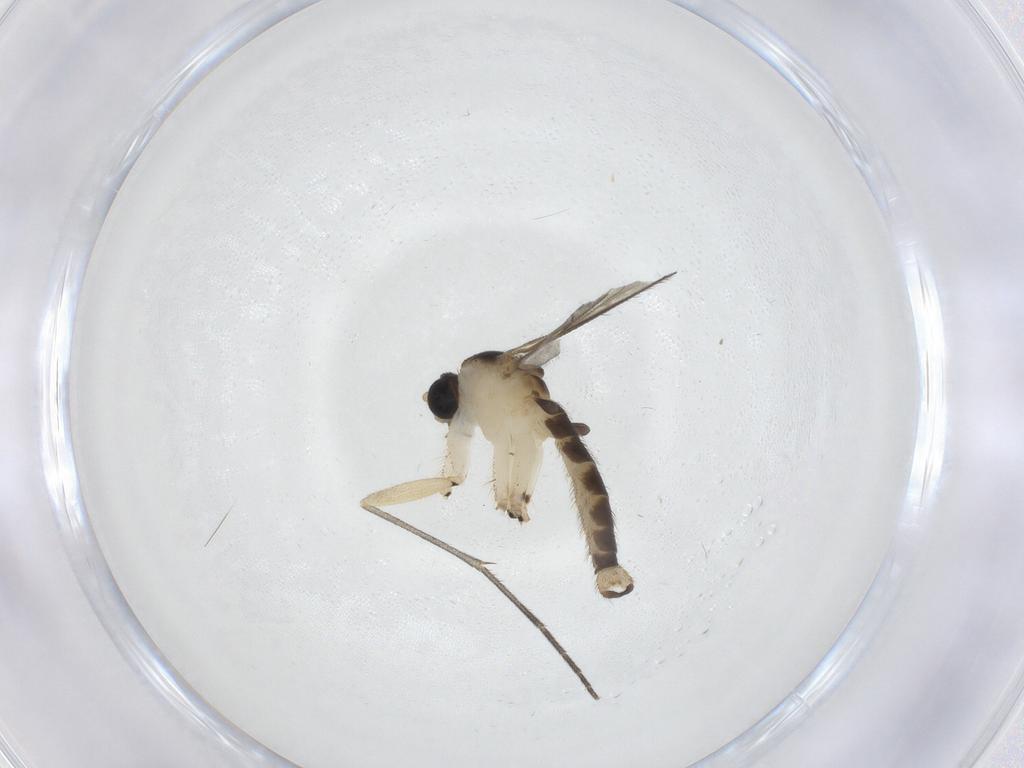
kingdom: Animalia
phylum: Arthropoda
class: Insecta
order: Diptera
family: Sciaridae
